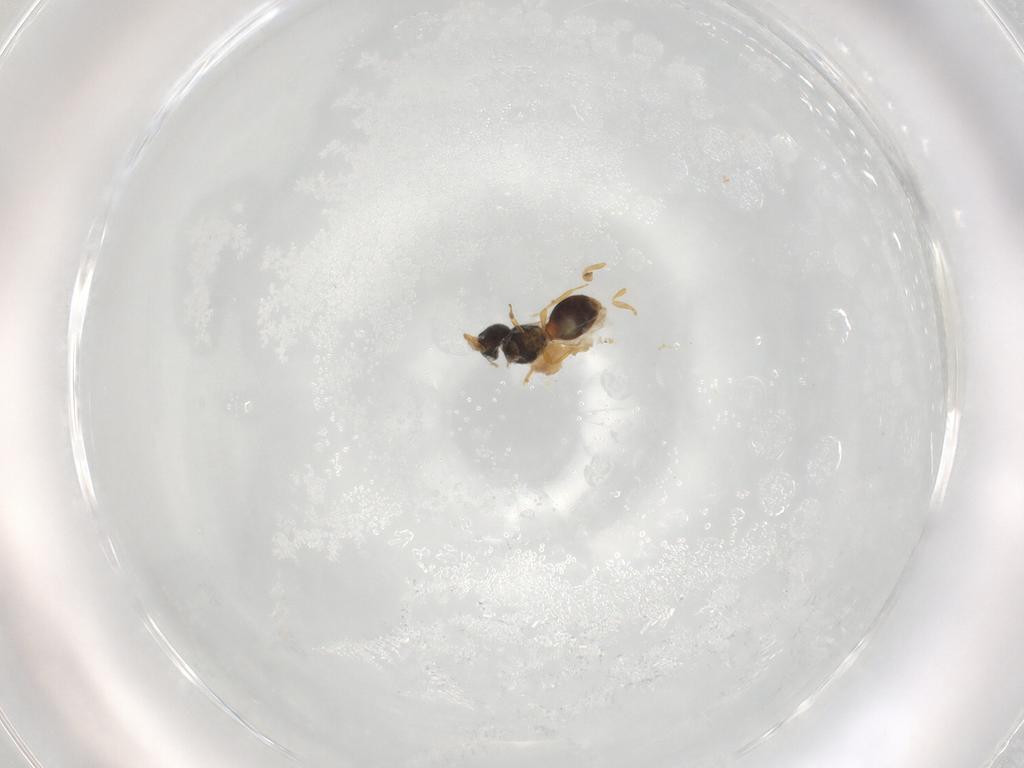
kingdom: Animalia
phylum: Arthropoda
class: Insecta
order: Hymenoptera
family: Scelionidae
